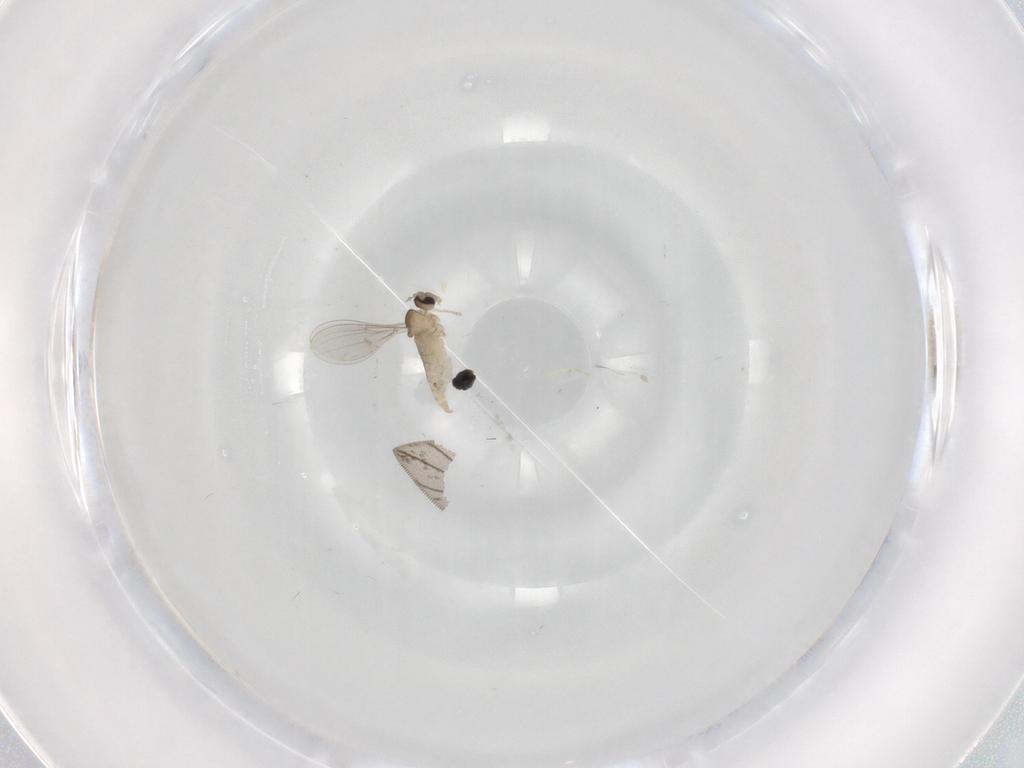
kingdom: Animalia
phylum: Arthropoda
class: Insecta
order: Diptera
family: Cecidomyiidae
